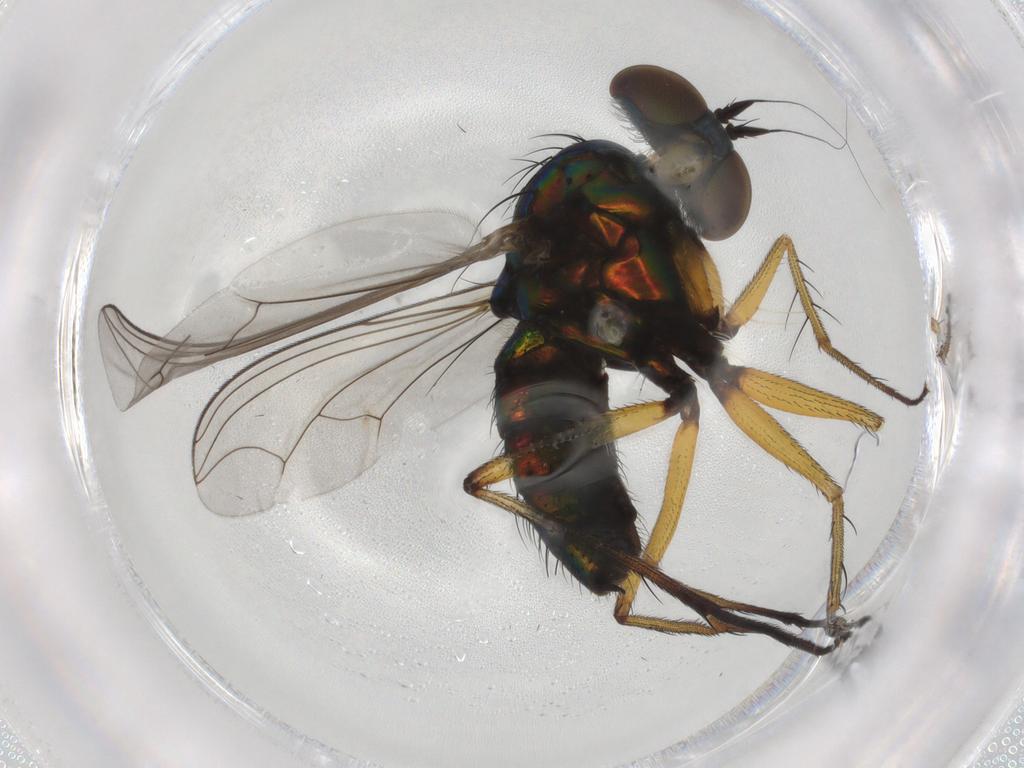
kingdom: Animalia
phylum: Arthropoda
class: Insecta
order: Diptera
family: Dolichopodidae
